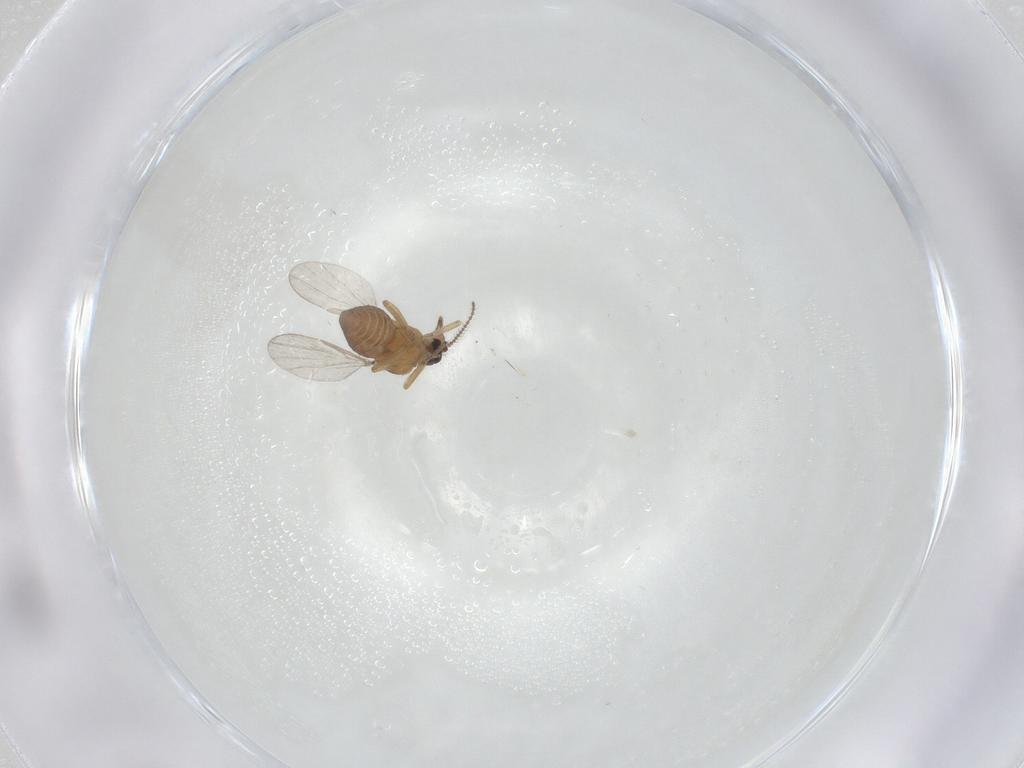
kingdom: Animalia
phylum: Arthropoda
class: Insecta
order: Diptera
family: Ceratopogonidae
